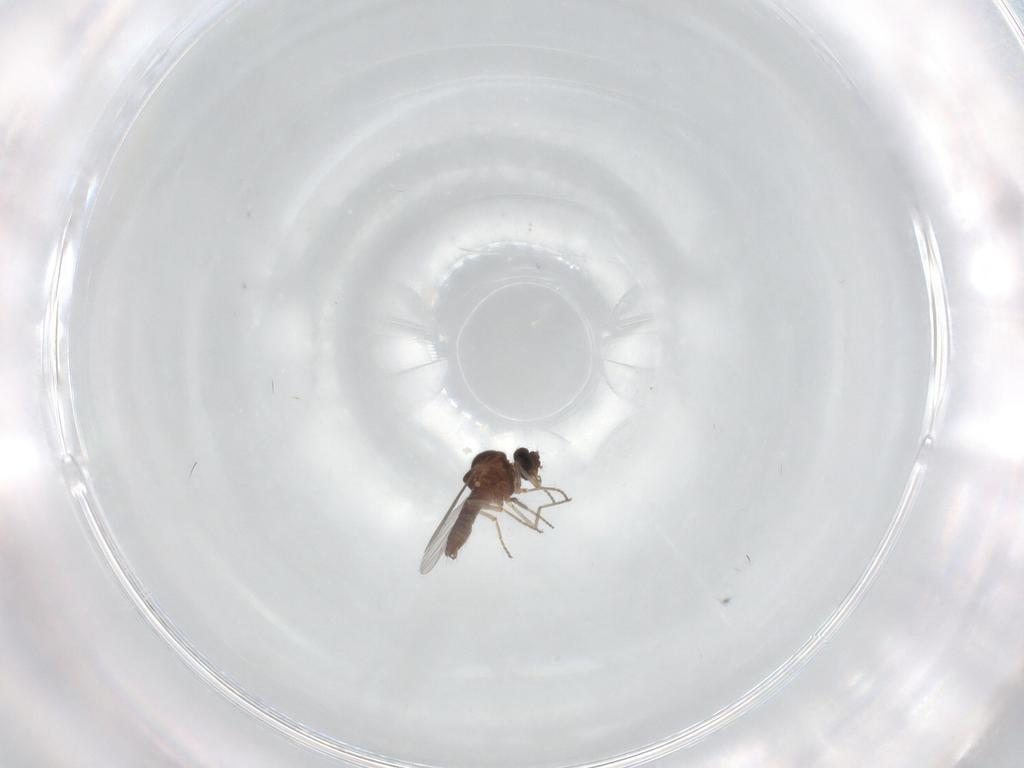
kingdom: Animalia
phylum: Arthropoda
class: Insecta
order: Diptera
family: Ceratopogonidae
